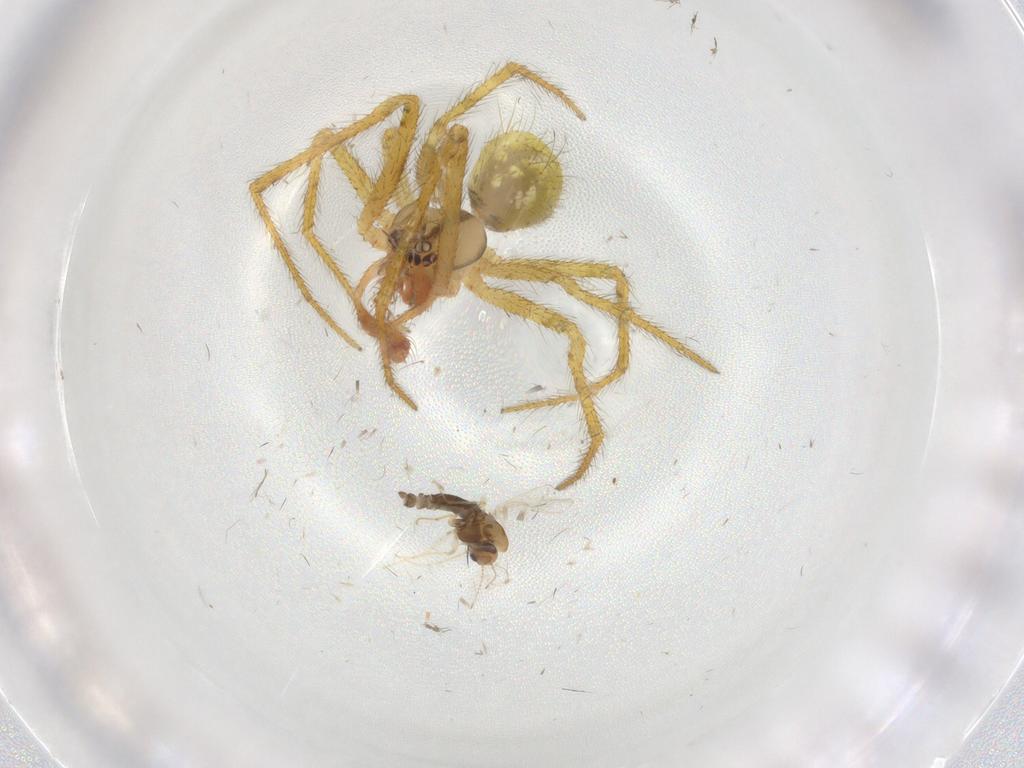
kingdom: Animalia
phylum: Arthropoda
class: Insecta
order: Diptera
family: Chironomidae
